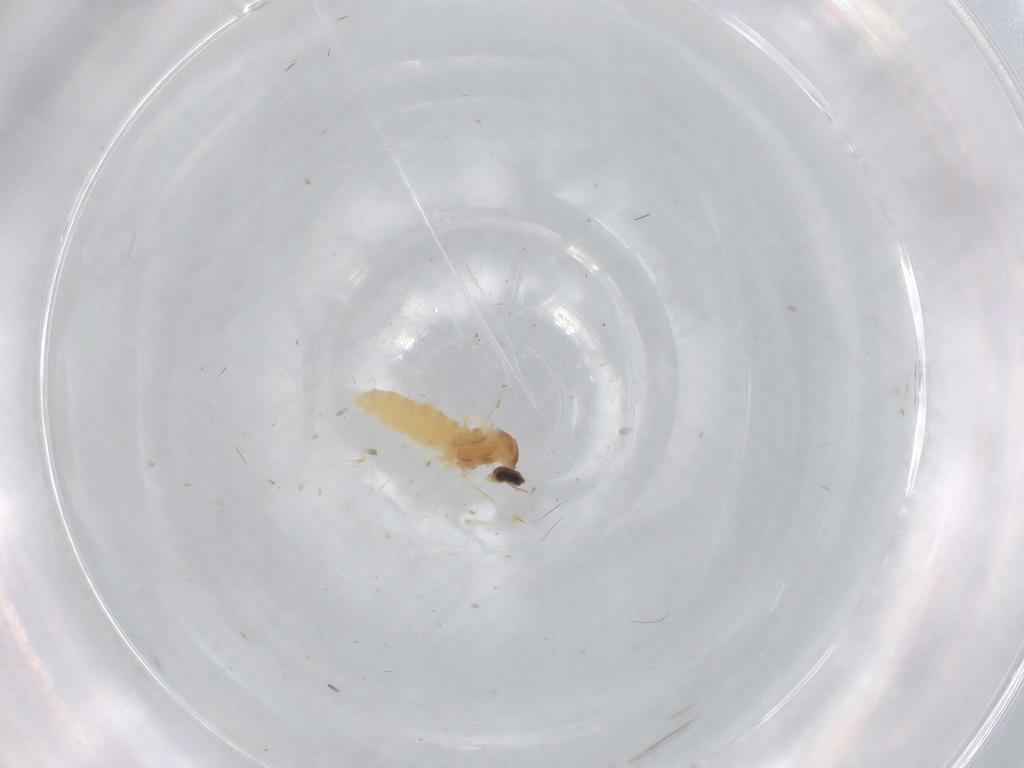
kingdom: Animalia
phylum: Arthropoda
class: Insecta
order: Diptera
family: Cecidomyiidae
